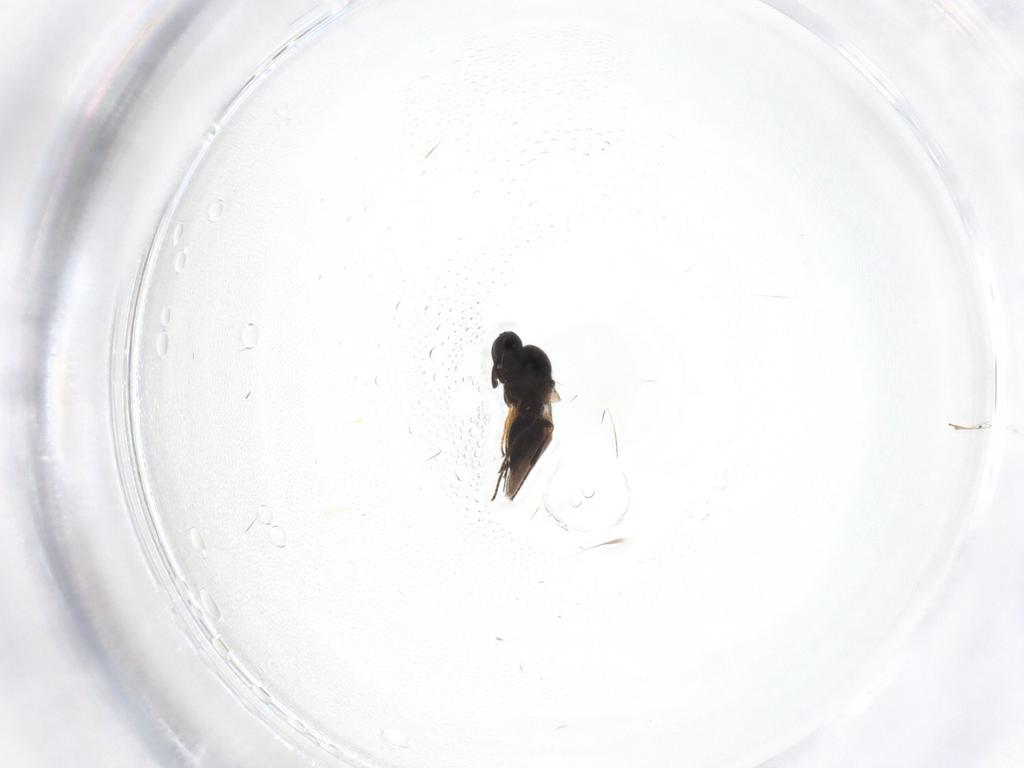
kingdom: Animalia
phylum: Arthropoda
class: Insecta
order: Hymenoptera
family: Platygastridae
